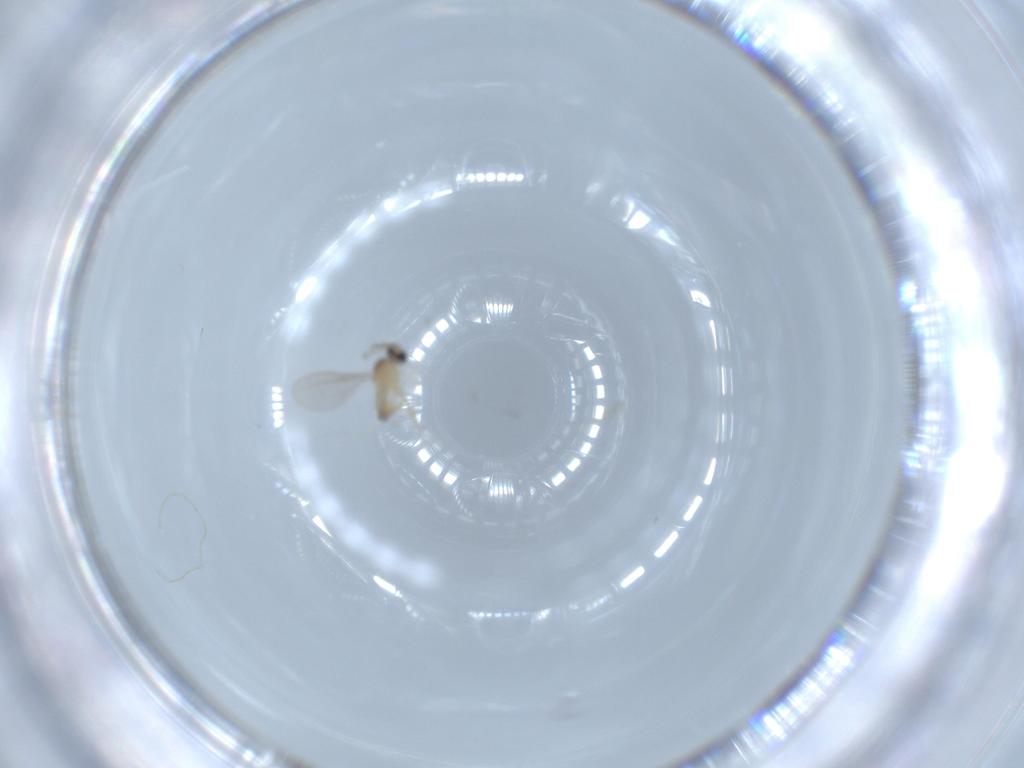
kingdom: Animalia
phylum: Arthropoda
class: Insecta
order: Diptera
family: Cecidomyiidae
